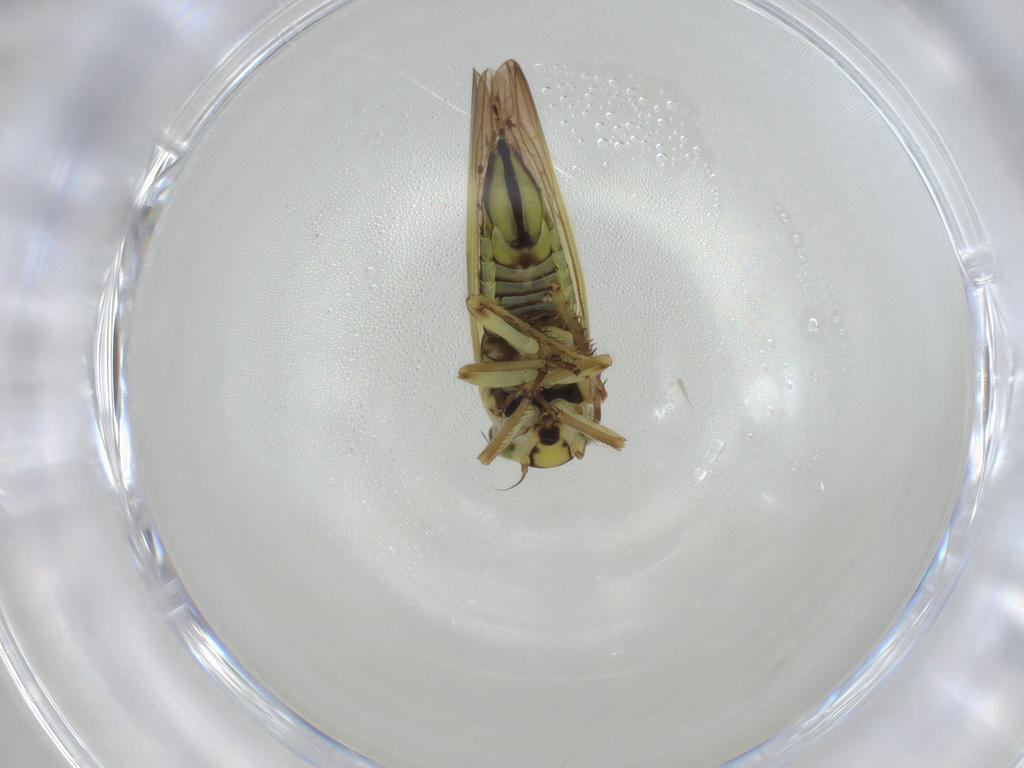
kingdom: Animalia
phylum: Arthropoda
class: Insecta
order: Hemiptera
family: Cicadellidae
